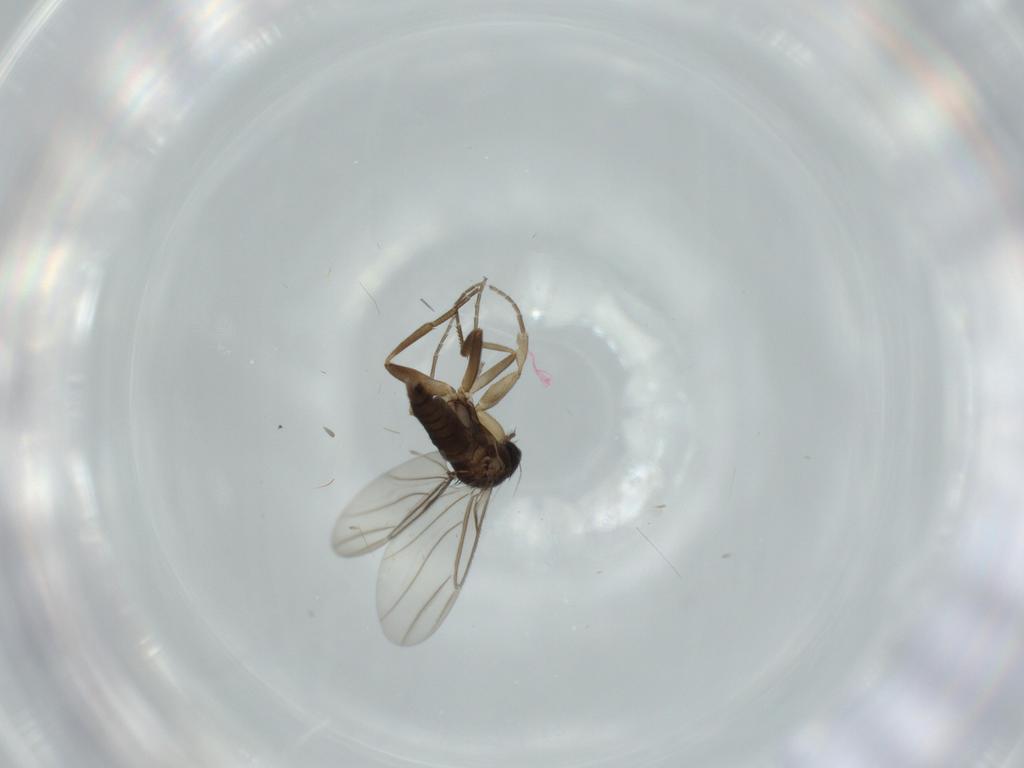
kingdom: Animalia
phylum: Arthropoda
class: Insecta
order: Diptera
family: Phoridae
